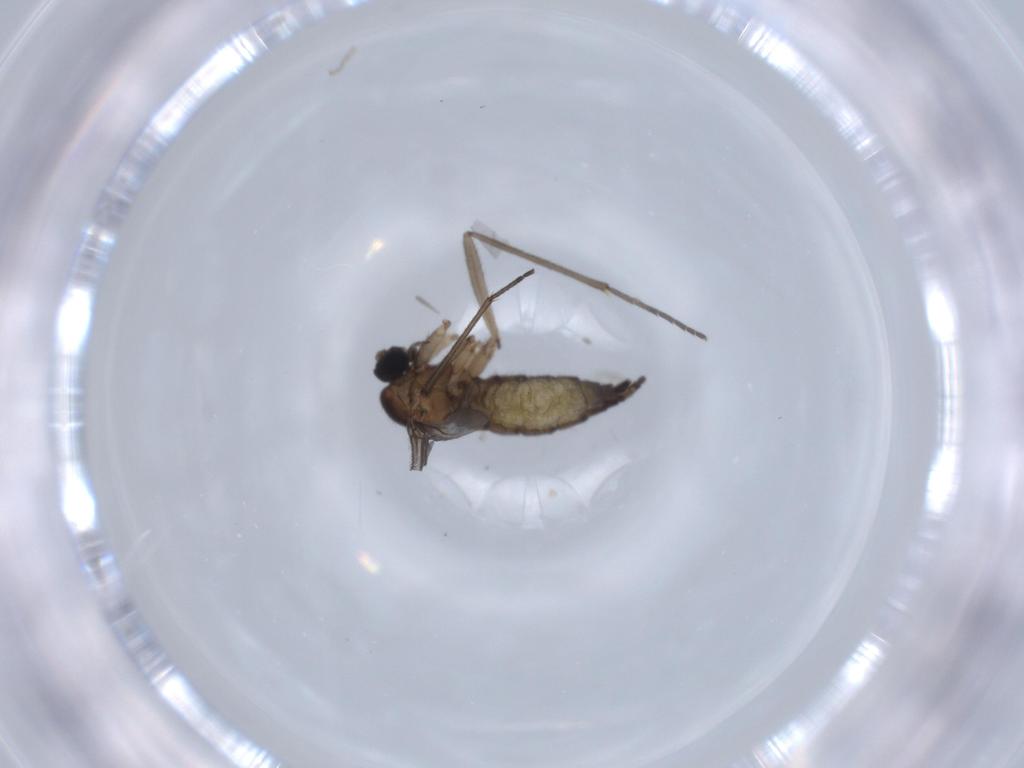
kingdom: Animalia
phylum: Arthropoda
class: Insecta
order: Diptera
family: Sciaridae
